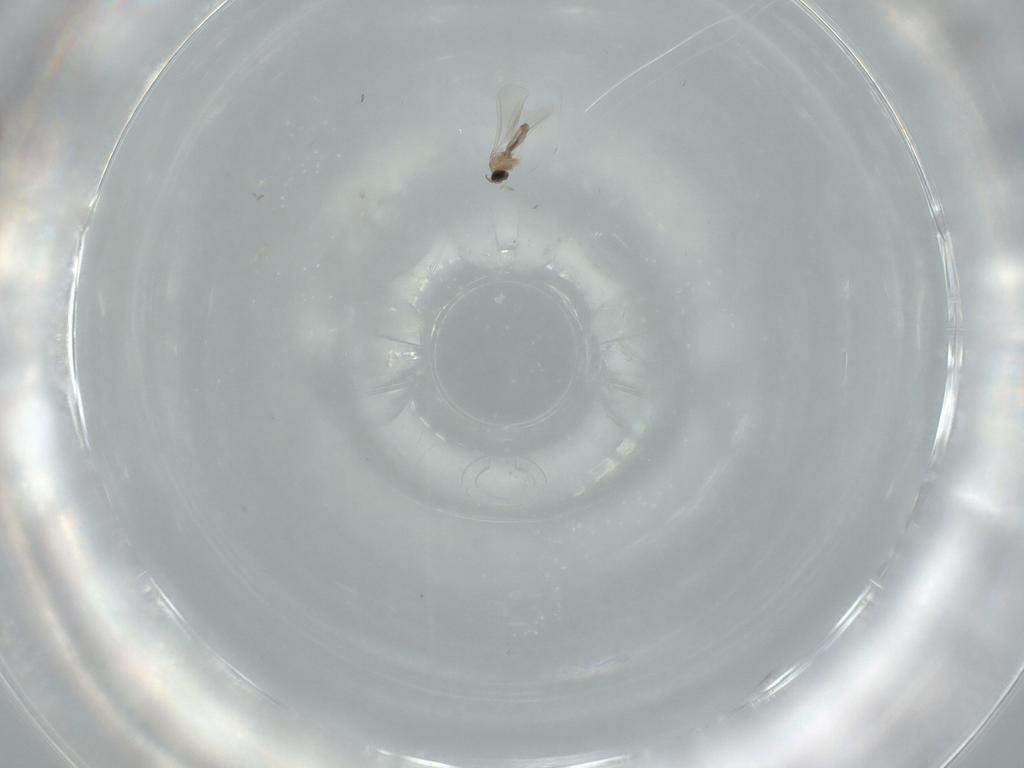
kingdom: Animalia
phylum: Arthropoda
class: Insecta
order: Diptera
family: Cecidomyiidae
